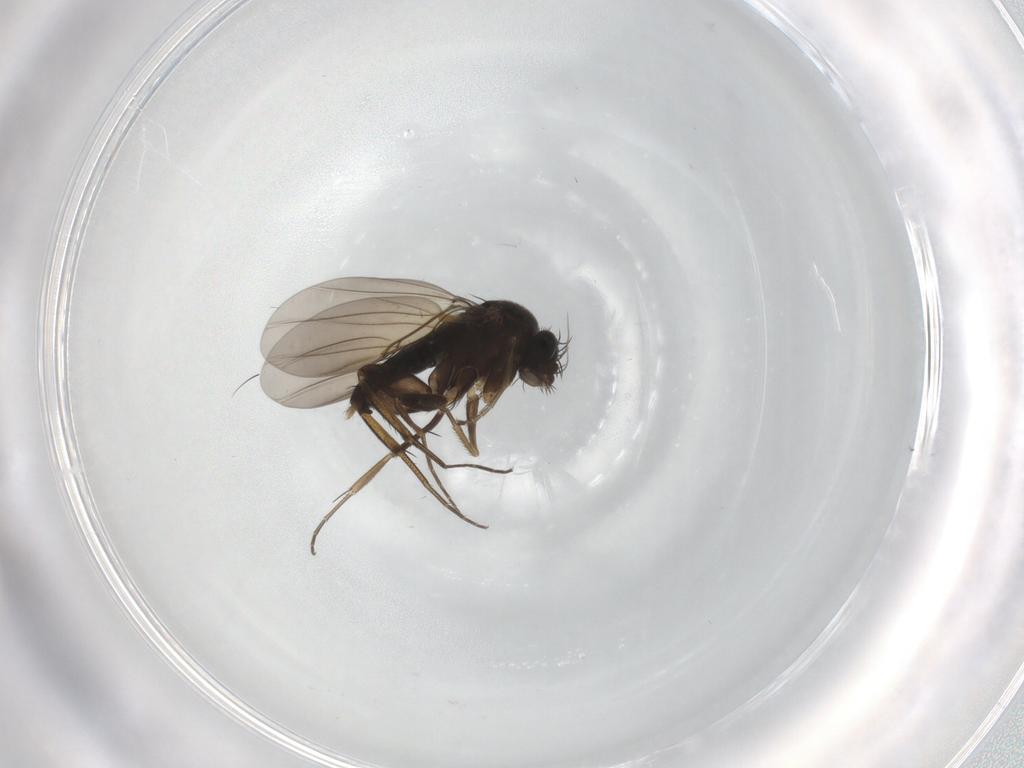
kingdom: Animalia
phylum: Arthropoda
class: Insecta
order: Diptera
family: Phoridae
